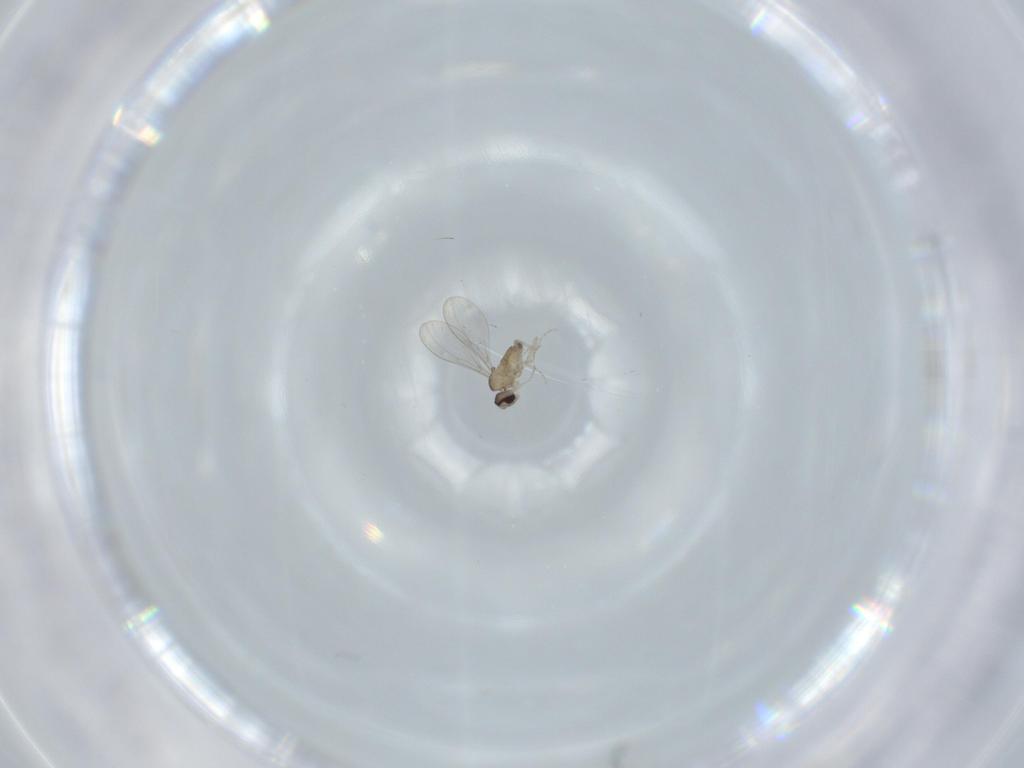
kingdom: Animalia
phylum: Arthropoda
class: Insecta
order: Diptera
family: Cecidomyiidae
